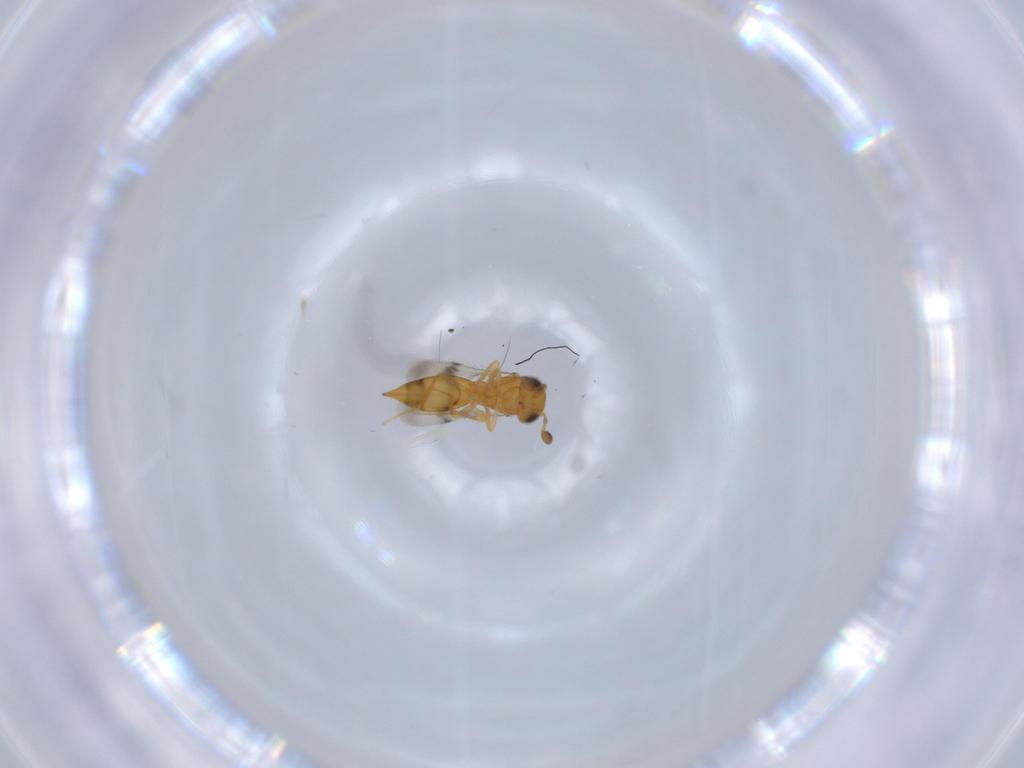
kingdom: Animalia
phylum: Arthropoda
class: Insecta
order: Hymenoptera
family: Scelionidae
